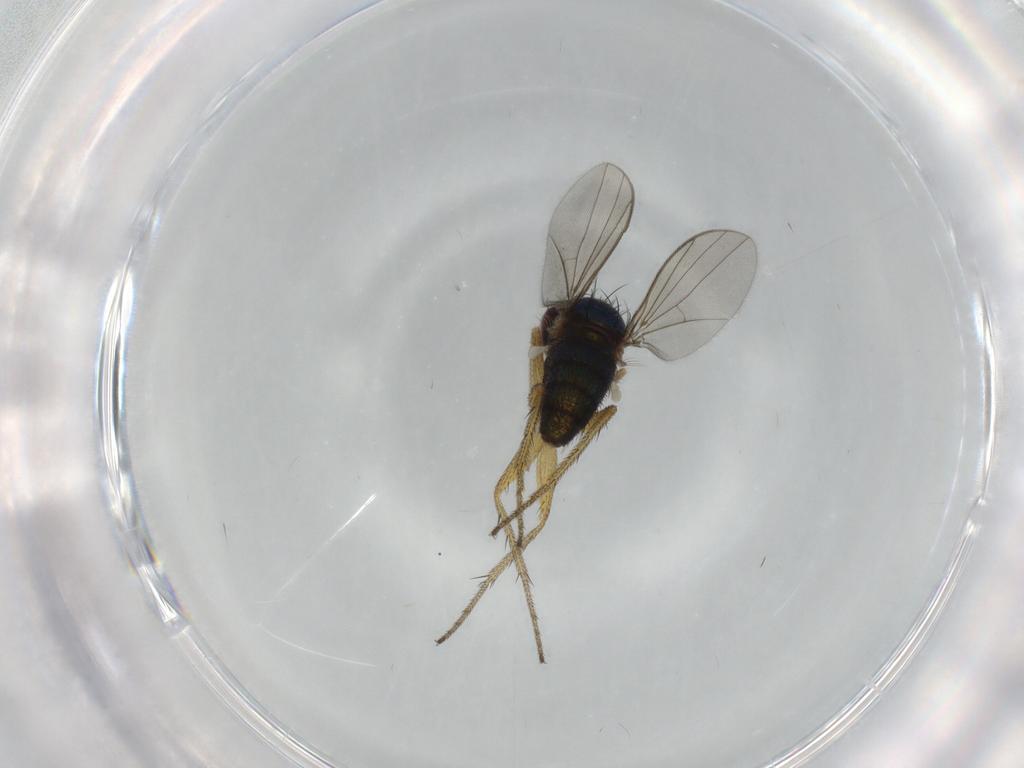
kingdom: Animalia
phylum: Arthropoda
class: Insecta
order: Diptera
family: Dolichopodidae
